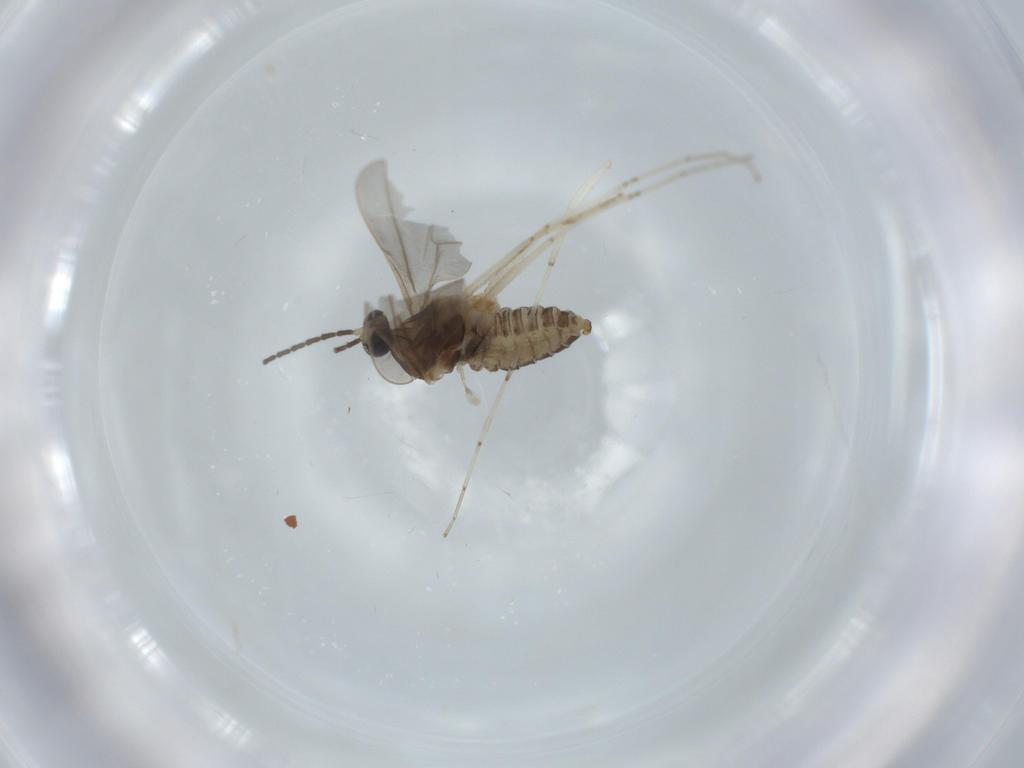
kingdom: Animalia
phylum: Arthropoda
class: Insecta
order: Diptera
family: Cecidomyiidae
